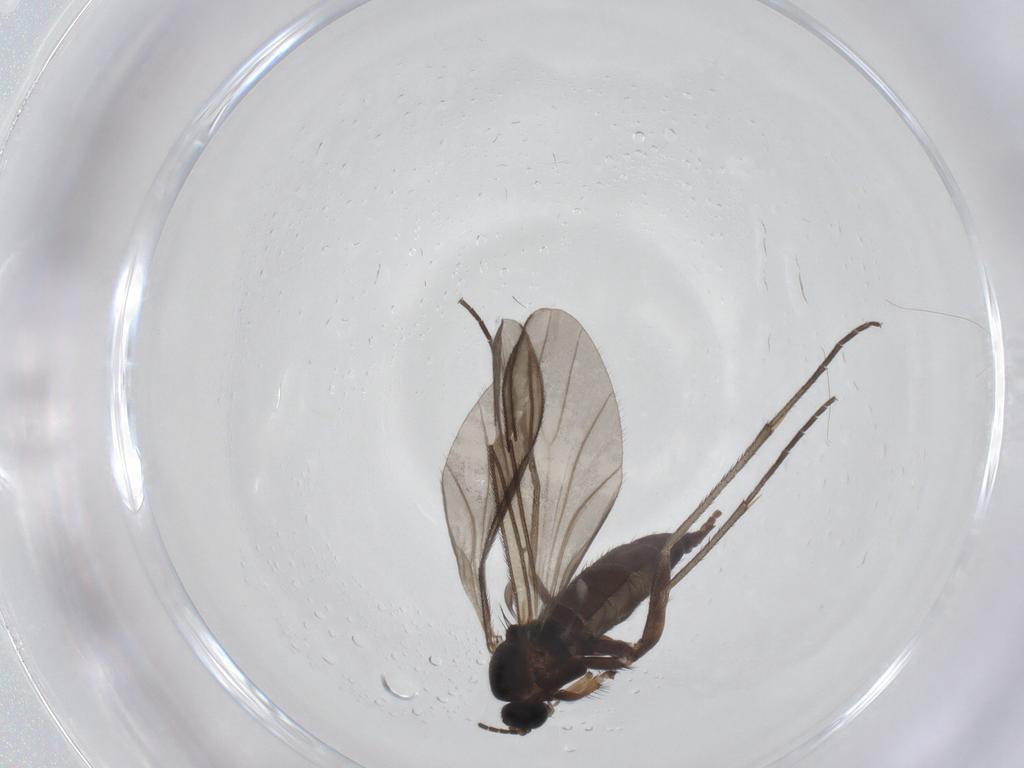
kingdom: Animalia
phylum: Arthropoda
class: Insecta
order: Diptera
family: Sciaridae
